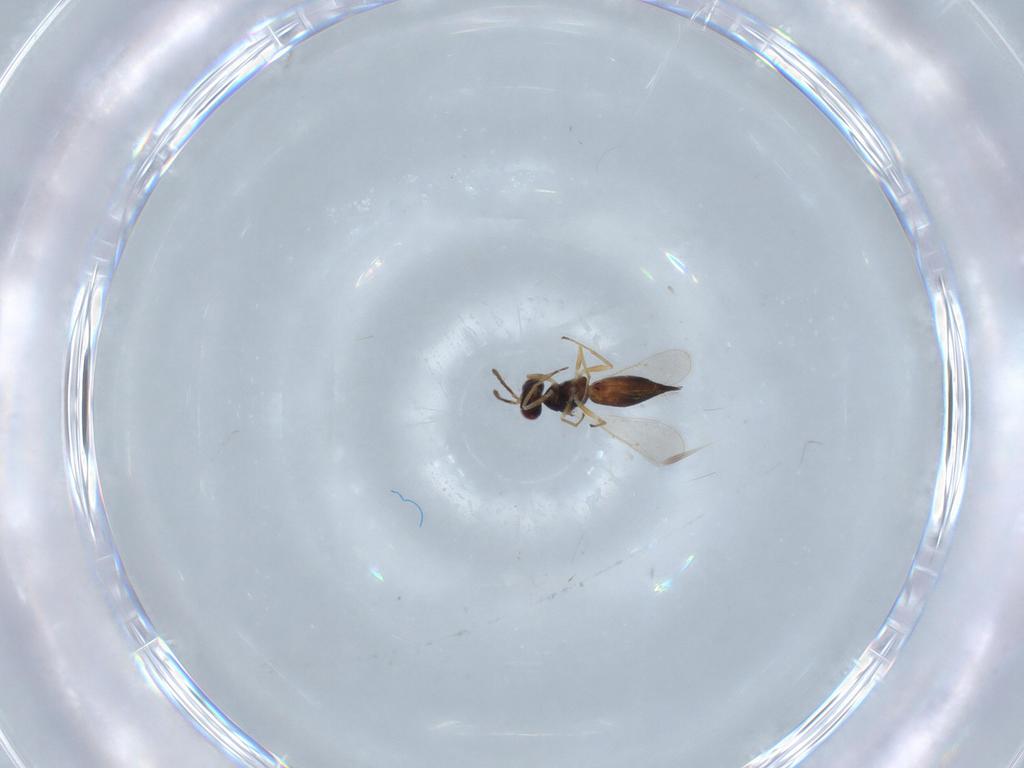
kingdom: Animalia
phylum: Arthropoda
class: Insecta
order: Hymenoptera
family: Eulophidae
